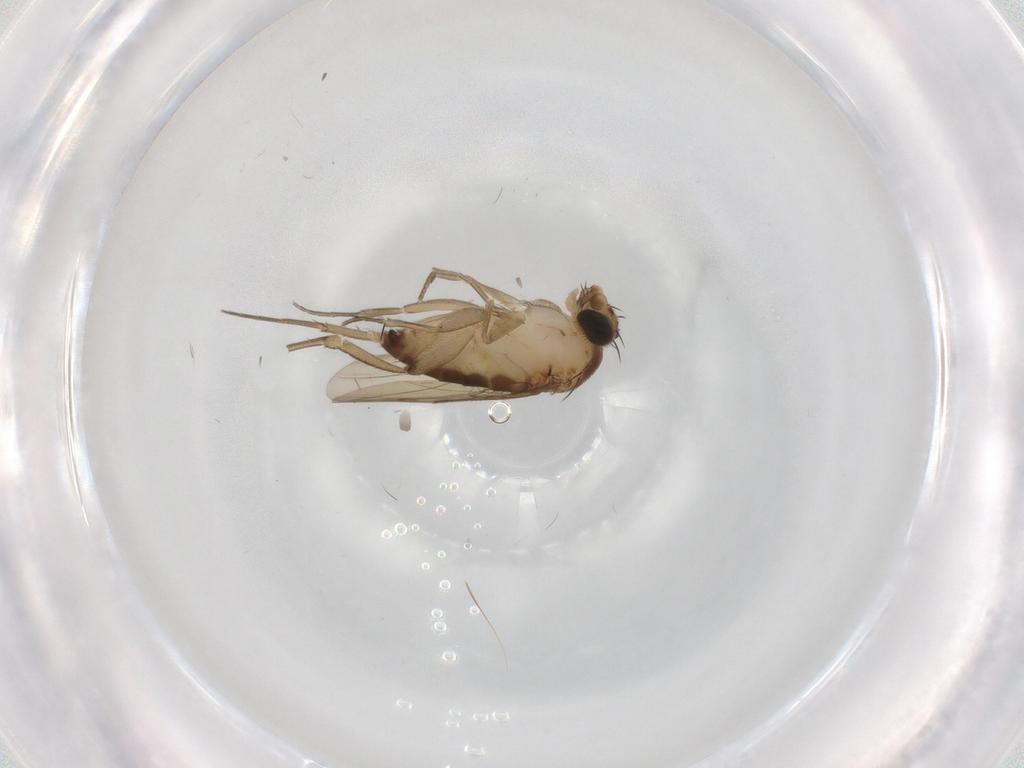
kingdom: Animalia
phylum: Arthropoda
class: Insecta
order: Diptera
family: Phoridae
